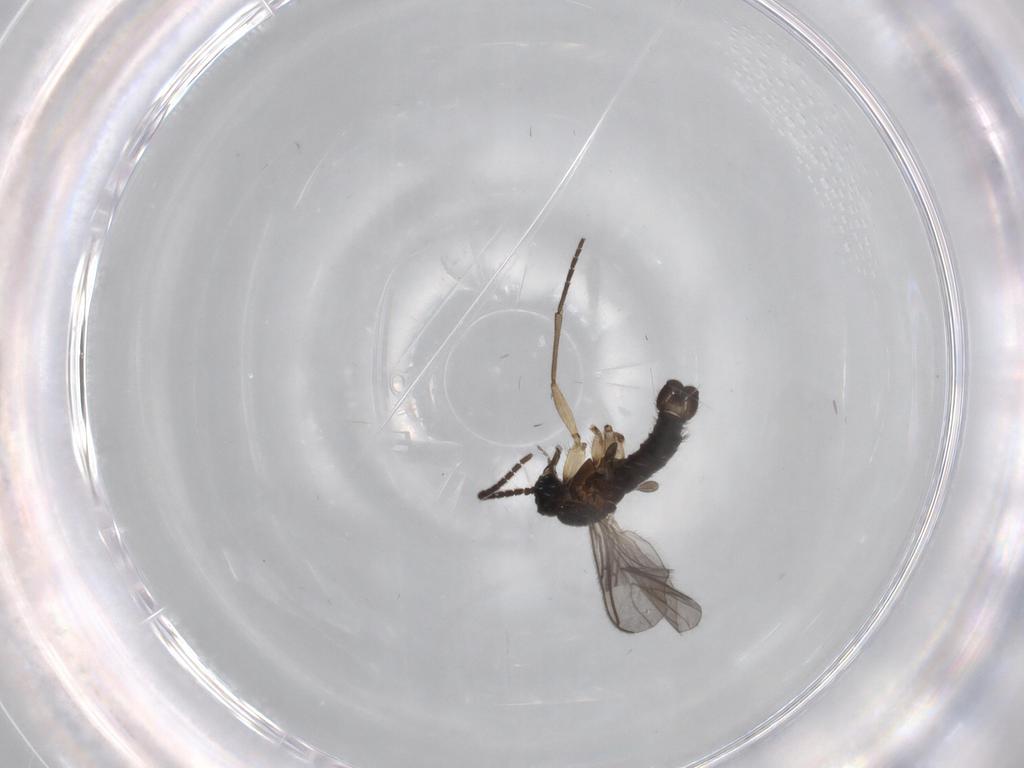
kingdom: Animalia
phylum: Arthropoda
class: Insecta
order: Diptera
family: Sciaridae
